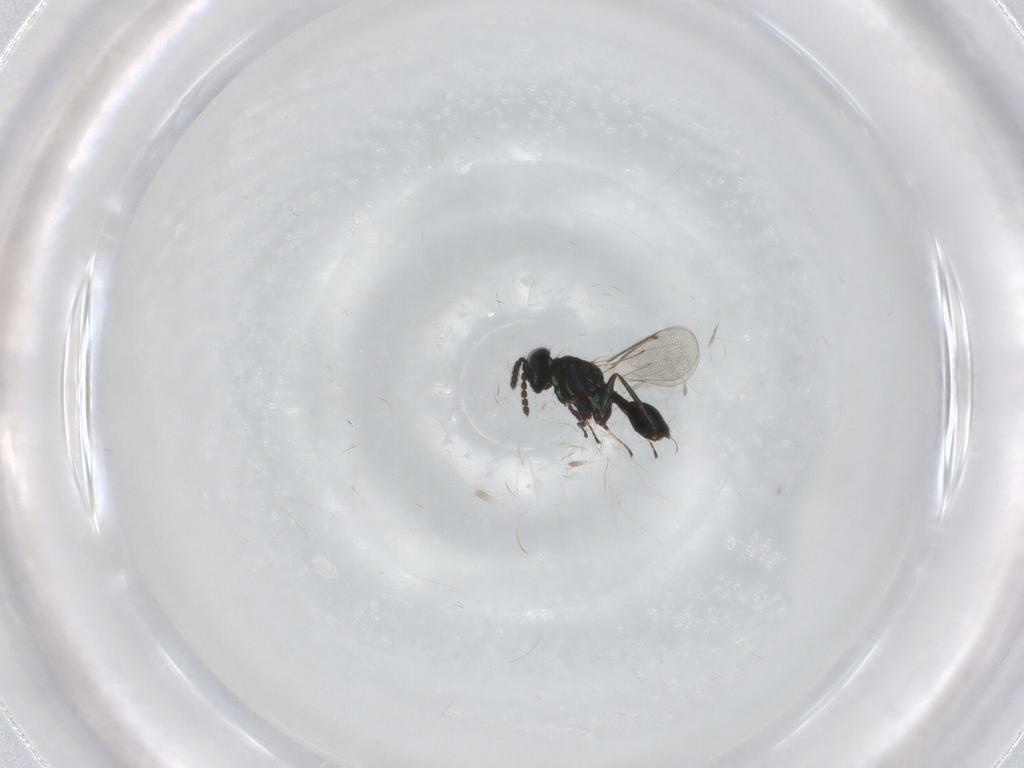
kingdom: Animalia
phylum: Arthropoda
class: Insecta
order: Hymenoptera
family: Eulophidae
